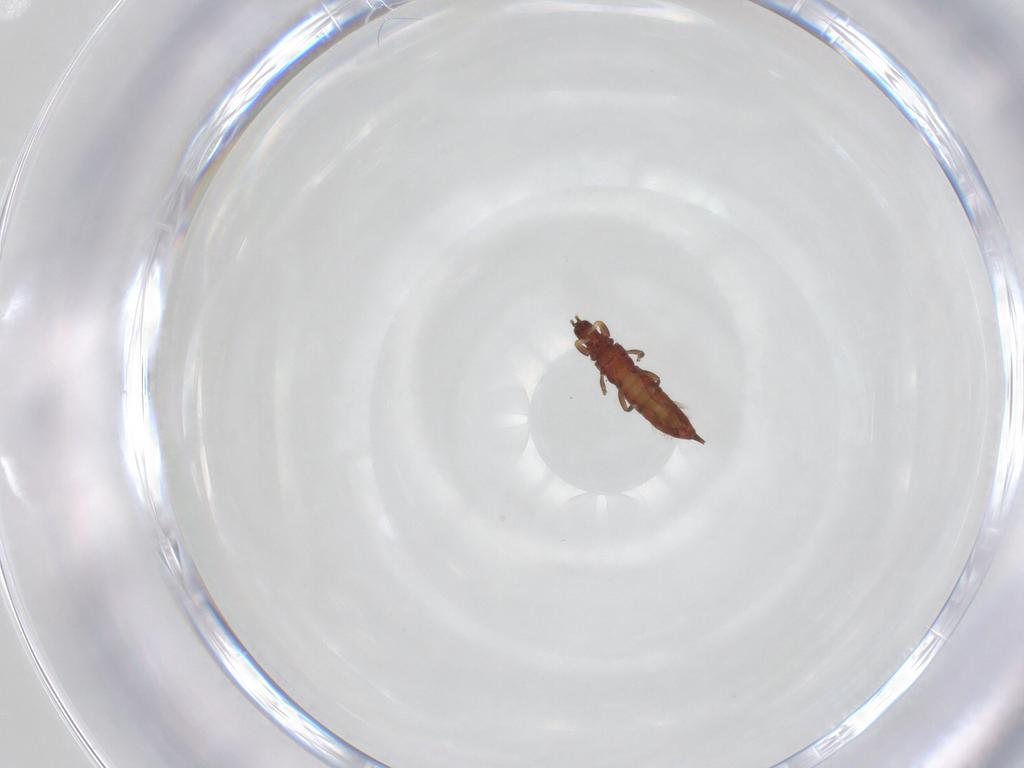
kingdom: Animalia
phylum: Arthropoda
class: Insecta
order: Thysanoptera
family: Phlaeothripidae
